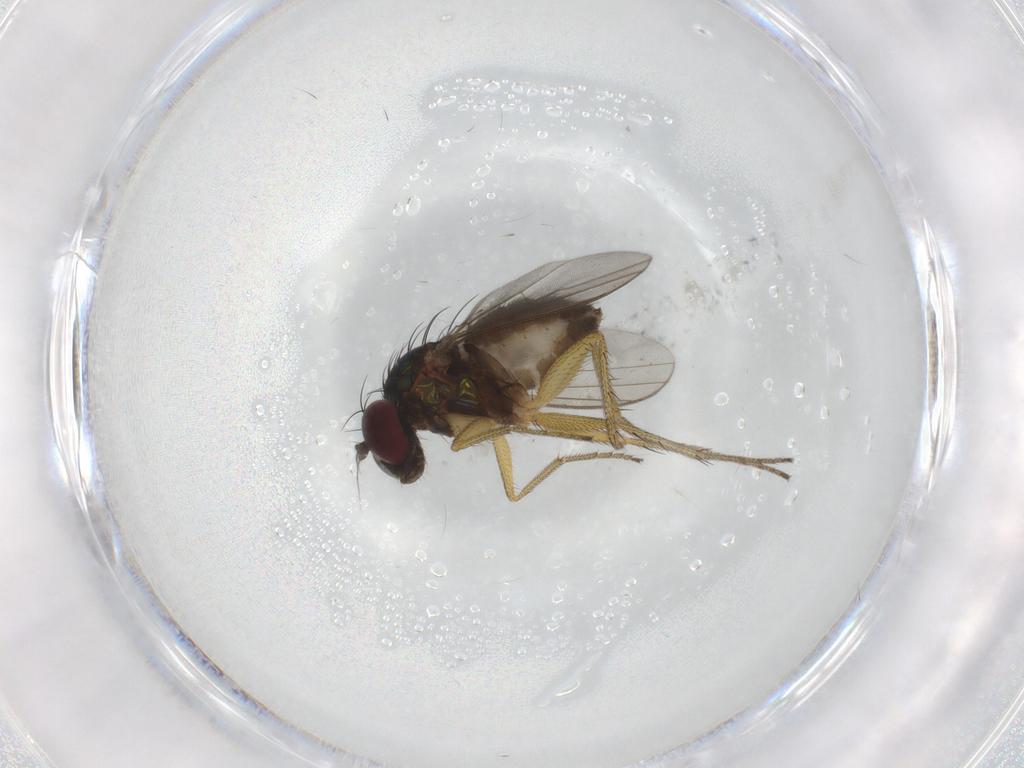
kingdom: Animalia
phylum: Arthropoda
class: Insecta
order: Diptera
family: Dolichopodidae
